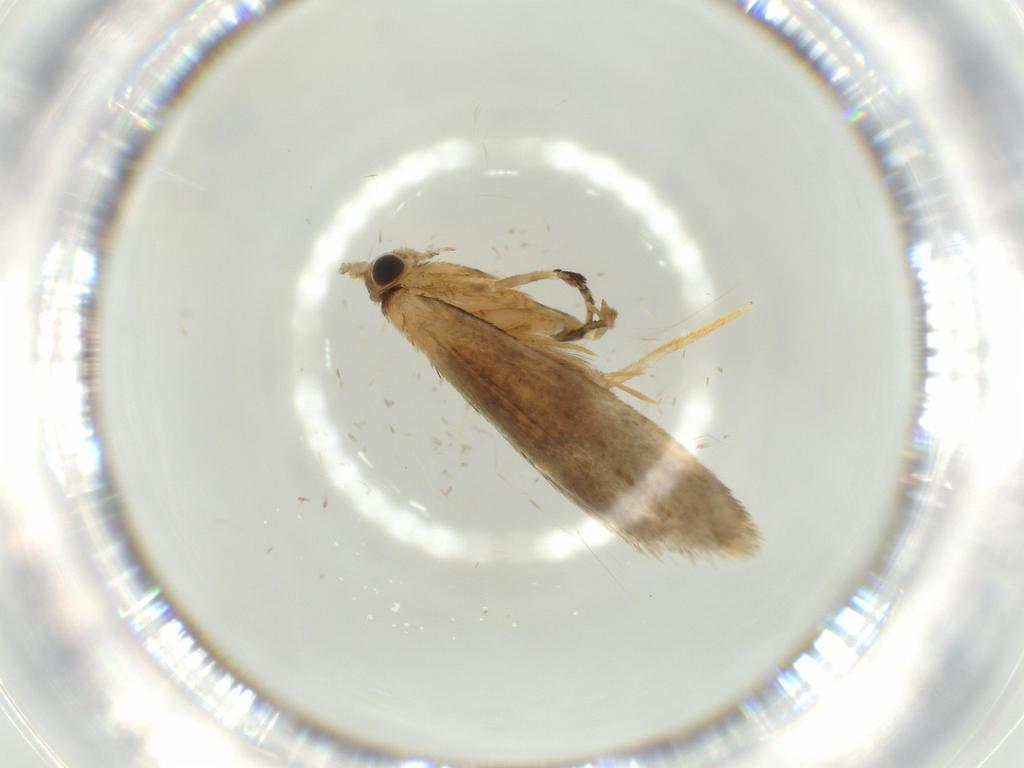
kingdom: Animalia
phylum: Arthropoda
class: Insecta
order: Lepidoptera
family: Tineidae
